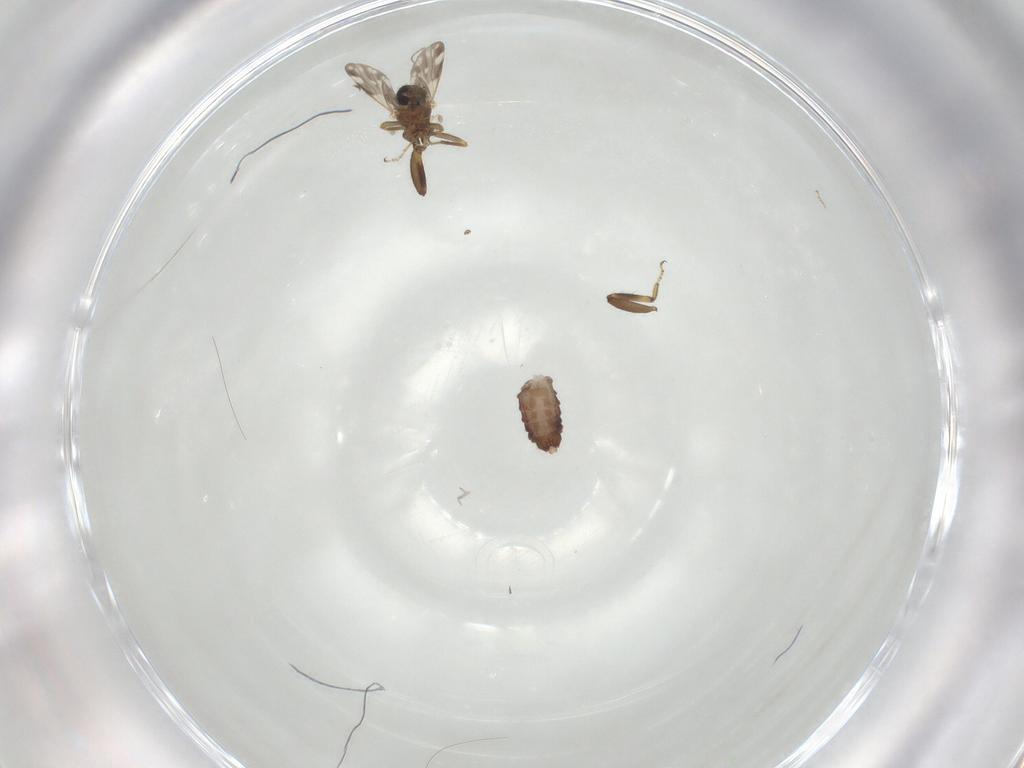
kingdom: Animalia
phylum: Arthropoda
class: Insecta
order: Diptera
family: Ceratopogonidae
